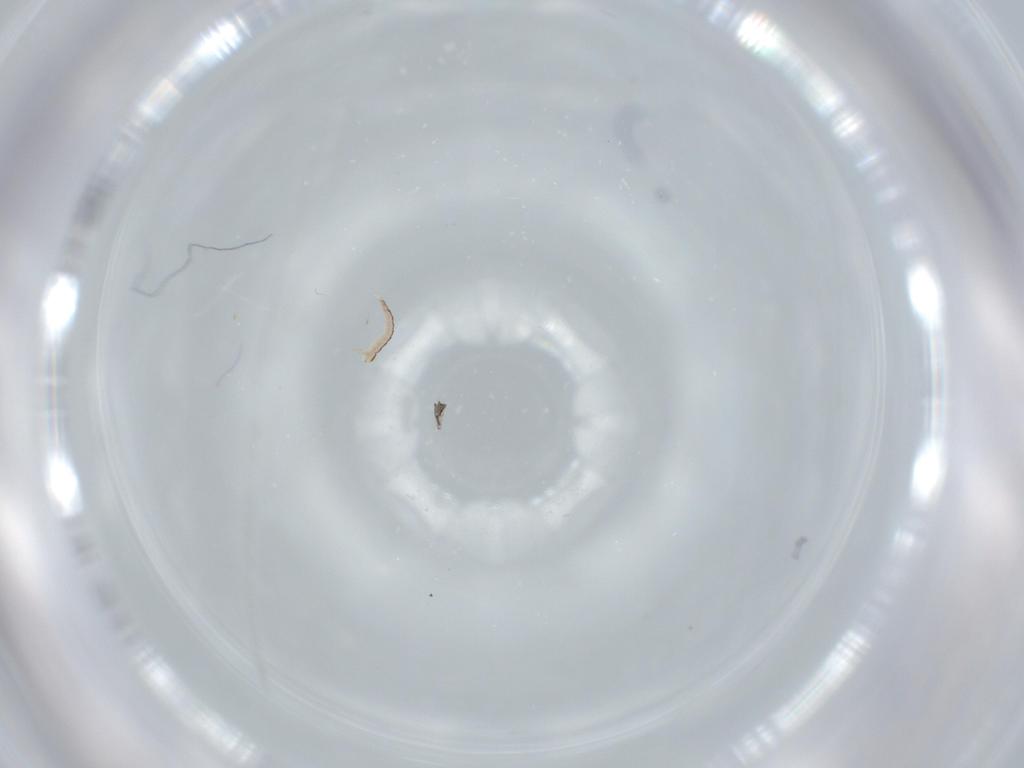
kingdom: Animalia
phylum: Arthropoda
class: Insecta
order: Neuroptera
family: Mantispidae
